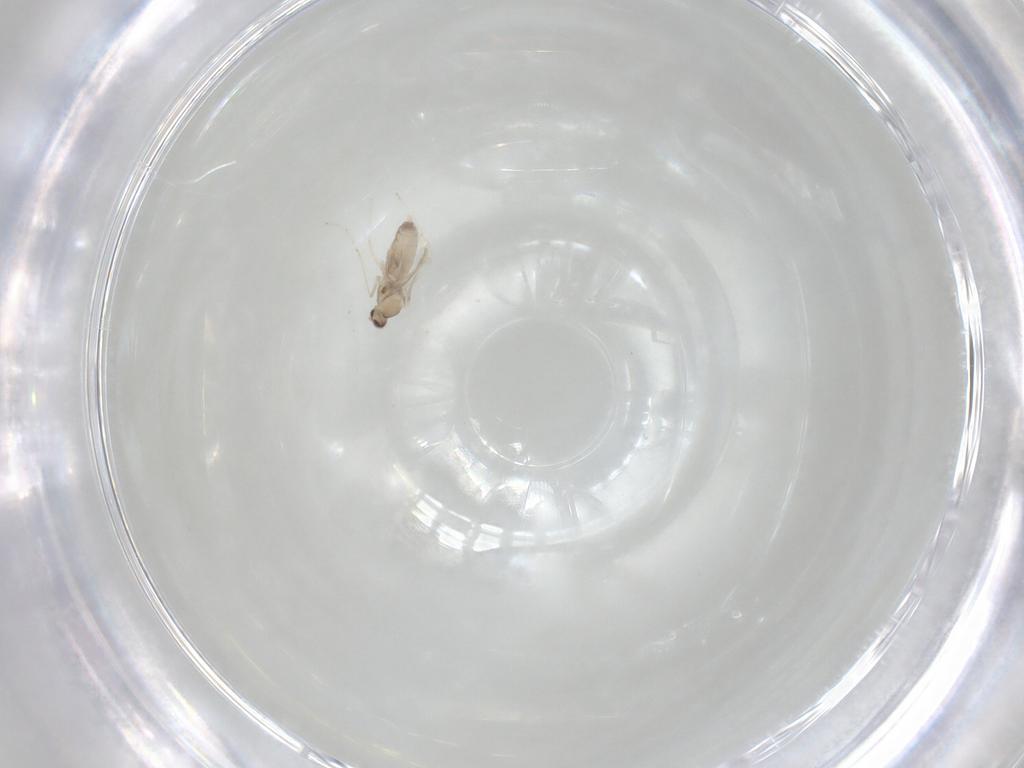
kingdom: Animalia
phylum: Arthropoda
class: Insecta
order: Diptera
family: Cecidomyiidae
